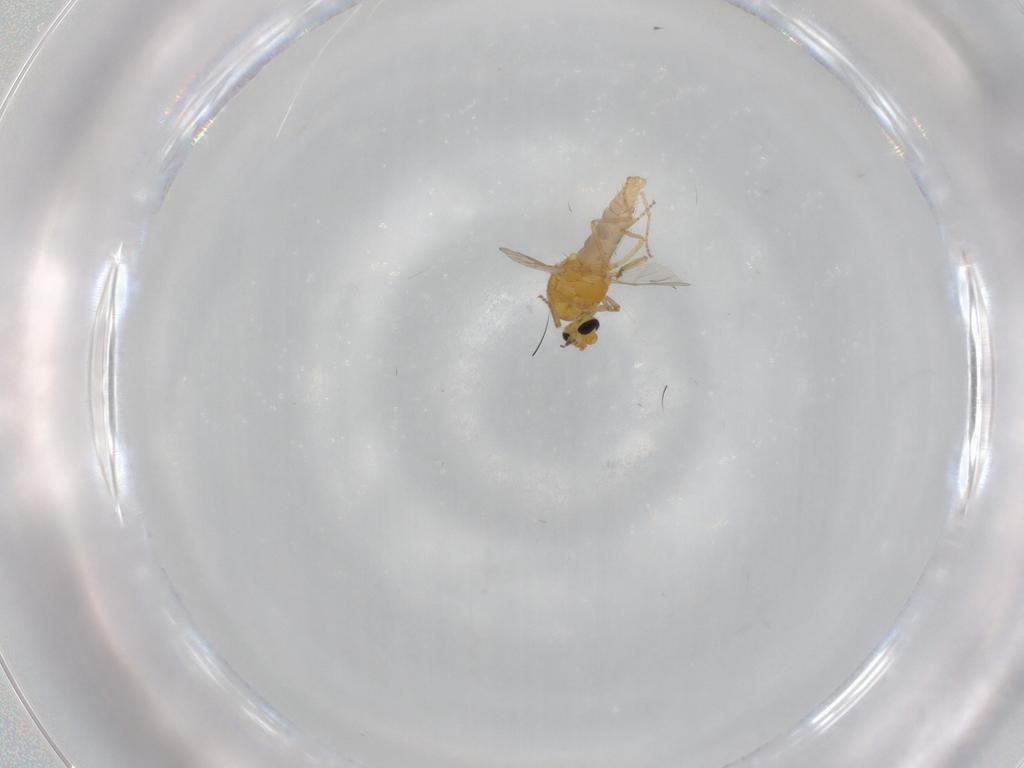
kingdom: Animalia
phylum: Arthropoda
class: Insecta
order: Diptera
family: Ceratopogonidae
